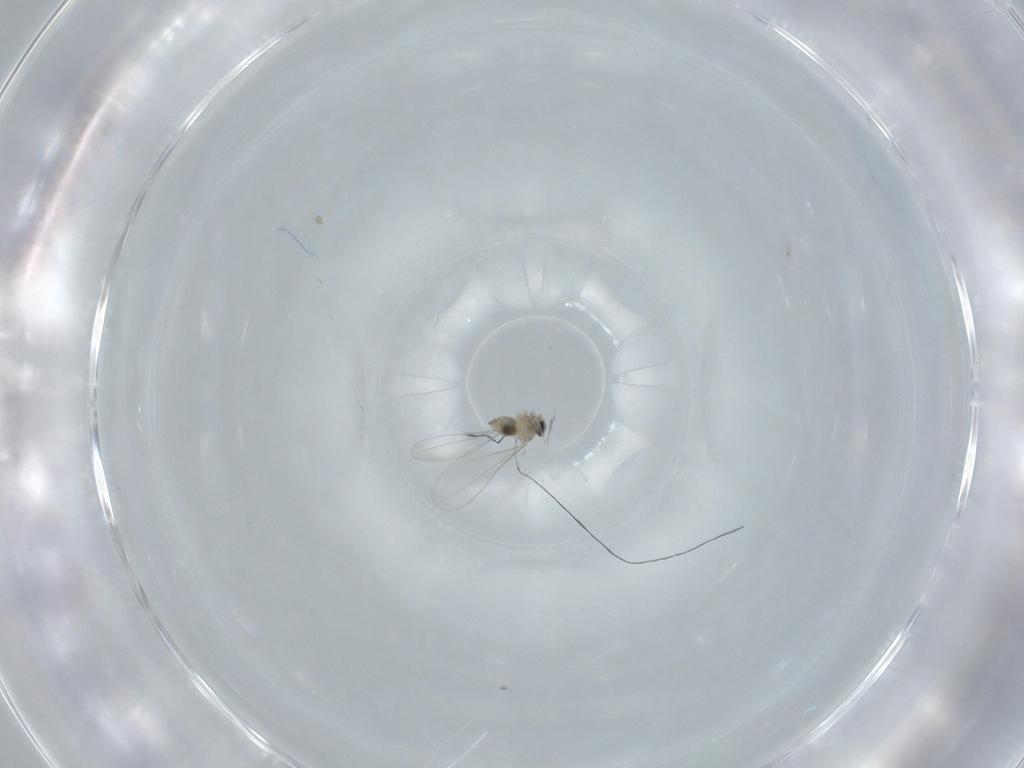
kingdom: Animalia
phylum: Arthropoda
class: Insecta
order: Diptera
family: Cecidomyiidae
